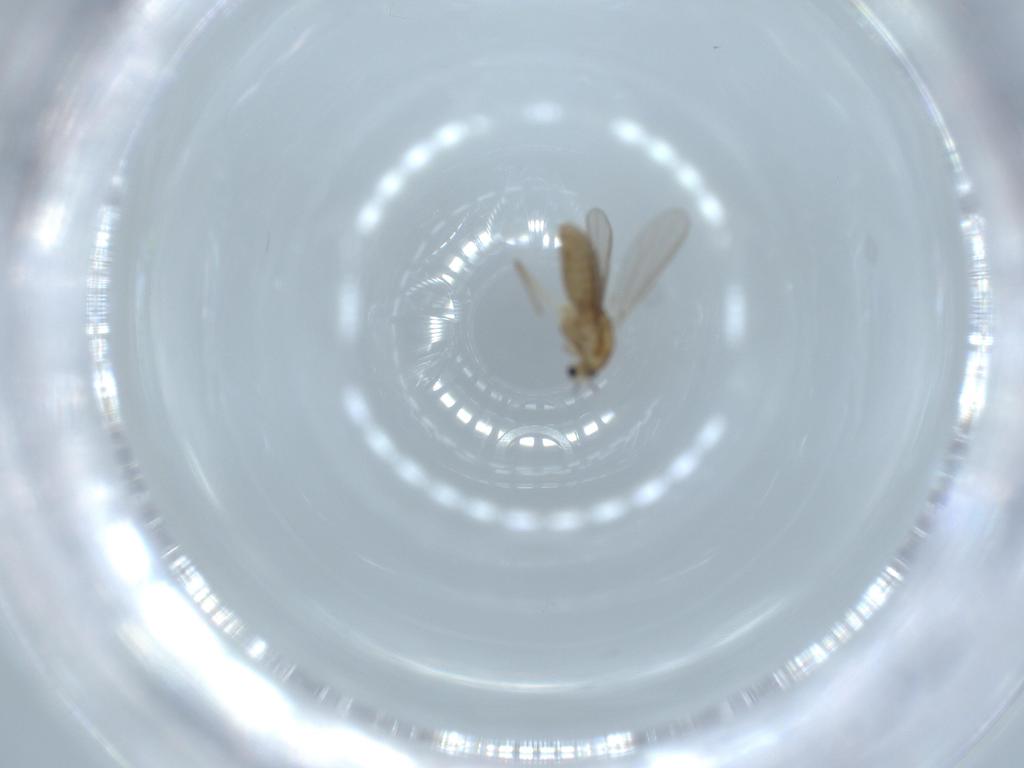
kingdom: Animalia
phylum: Arthropoda
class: Insecta
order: Diptera
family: Chironomidae
